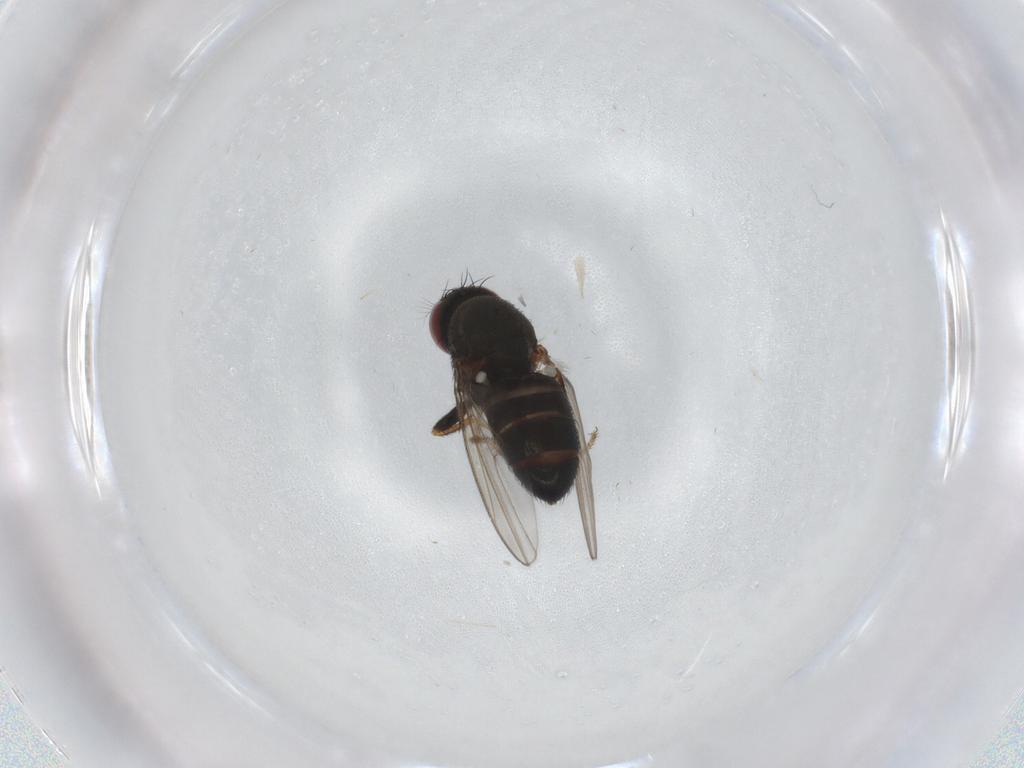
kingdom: Animalia
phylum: Arthropoda
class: Insecta
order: Diptera
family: Ephydridae
